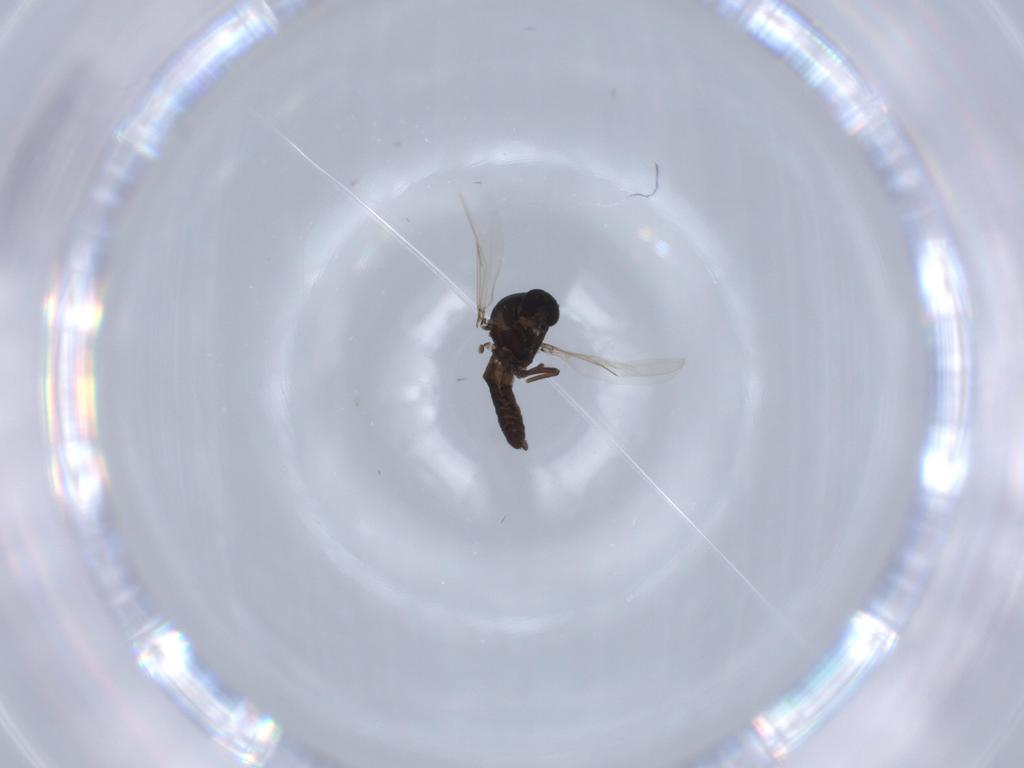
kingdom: Animalia
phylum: Arthropoda
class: Insecta
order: Diptera
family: Ceratopogonidae
